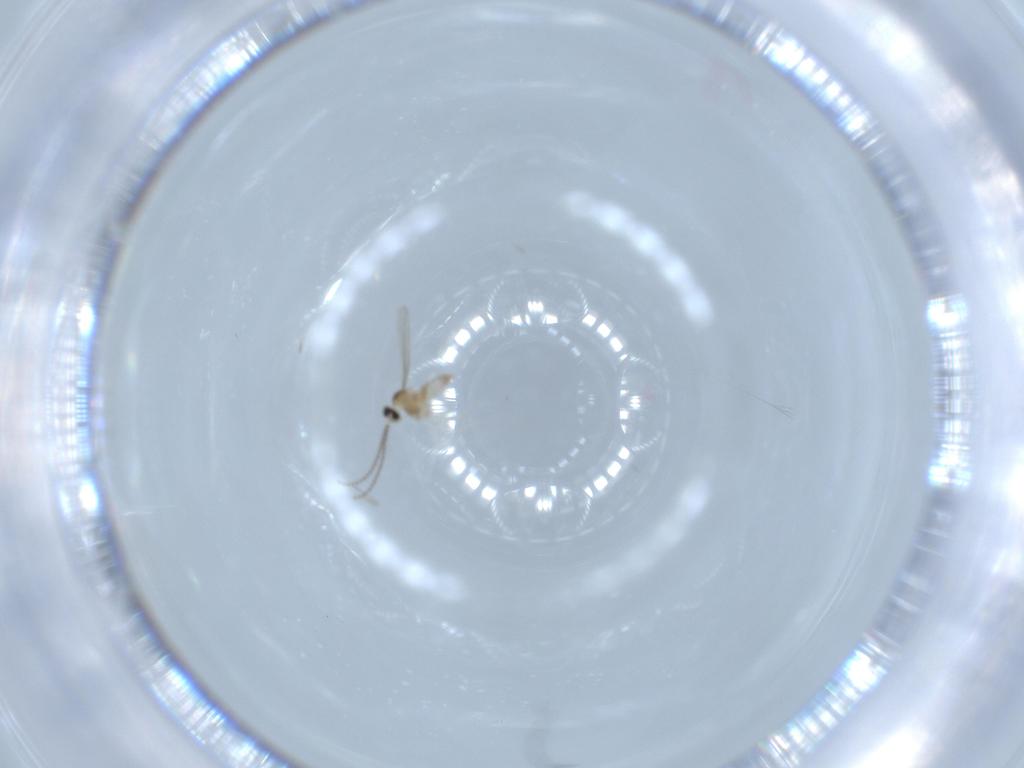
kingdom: Animalia
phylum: Arthropoda
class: Insecta
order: Diptera
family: Cecidomyiidae
